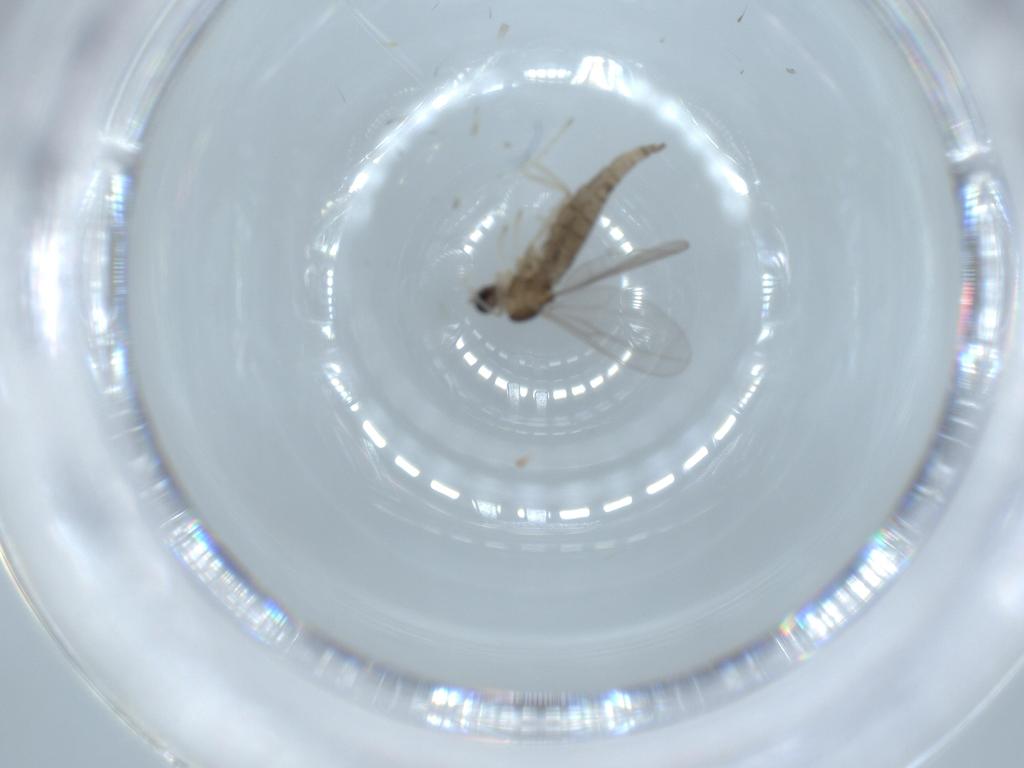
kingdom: Animalia
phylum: Arthropoda
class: Insecta
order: Diptera
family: Cecidomyiidae
